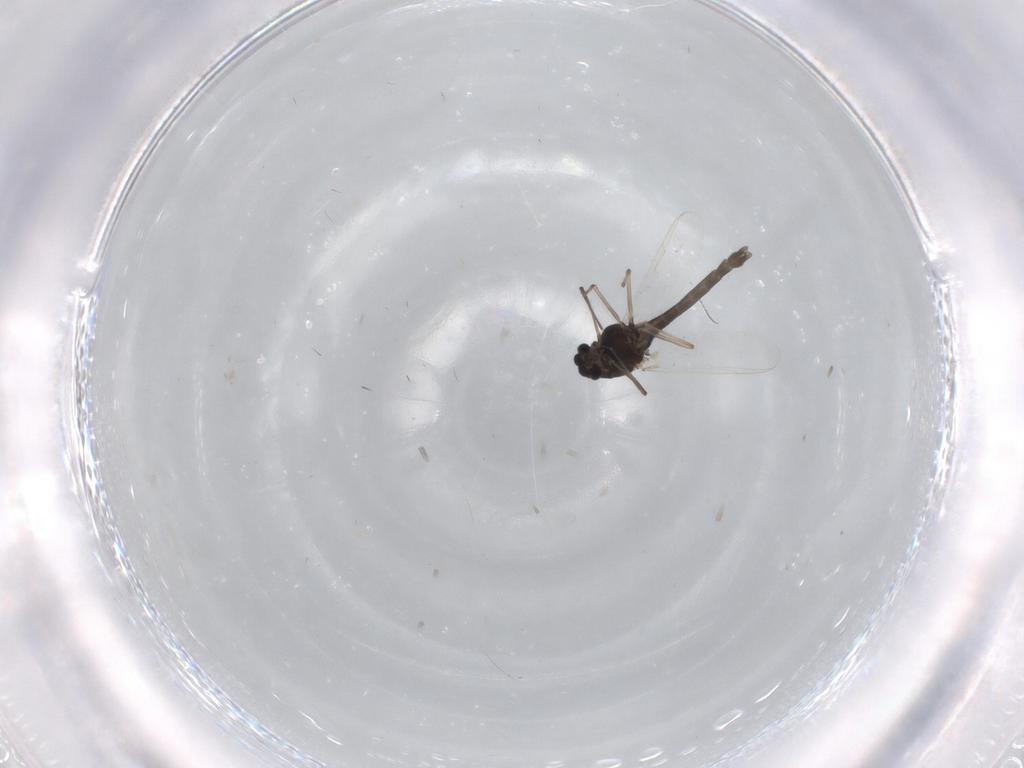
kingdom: Animalia
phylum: Arthropoda
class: Insecta
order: Diptera
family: Chironomidae
